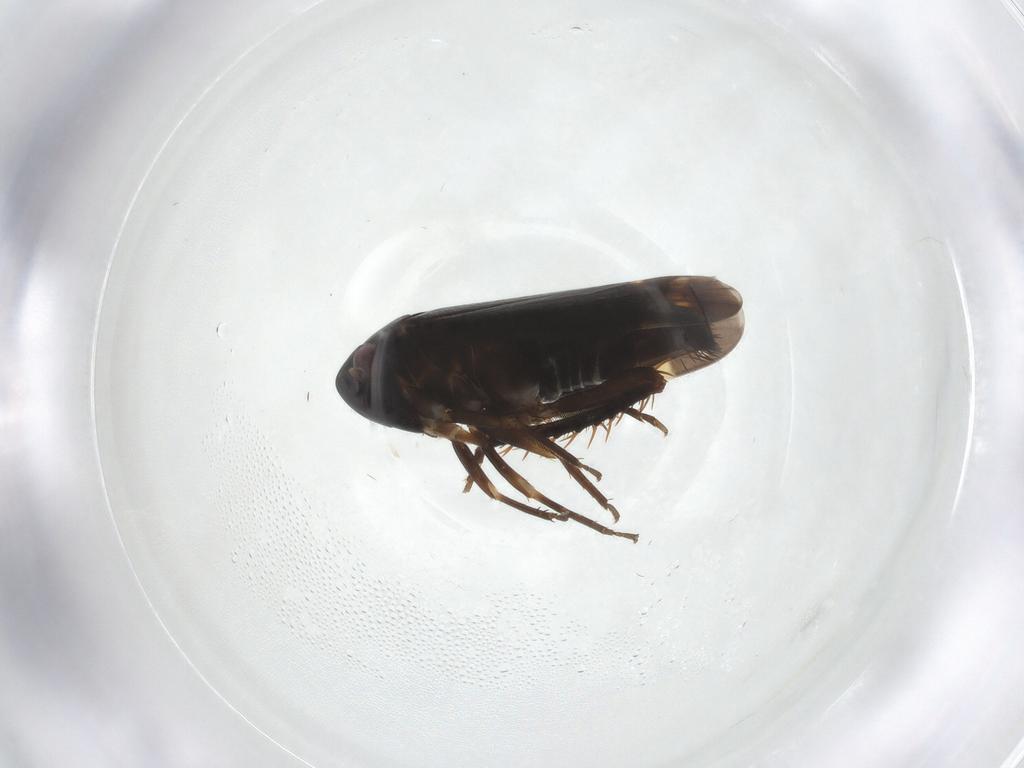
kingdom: Animalia
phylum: Arthropoda
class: Insecta
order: Hemiptera
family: Cicadellidae
